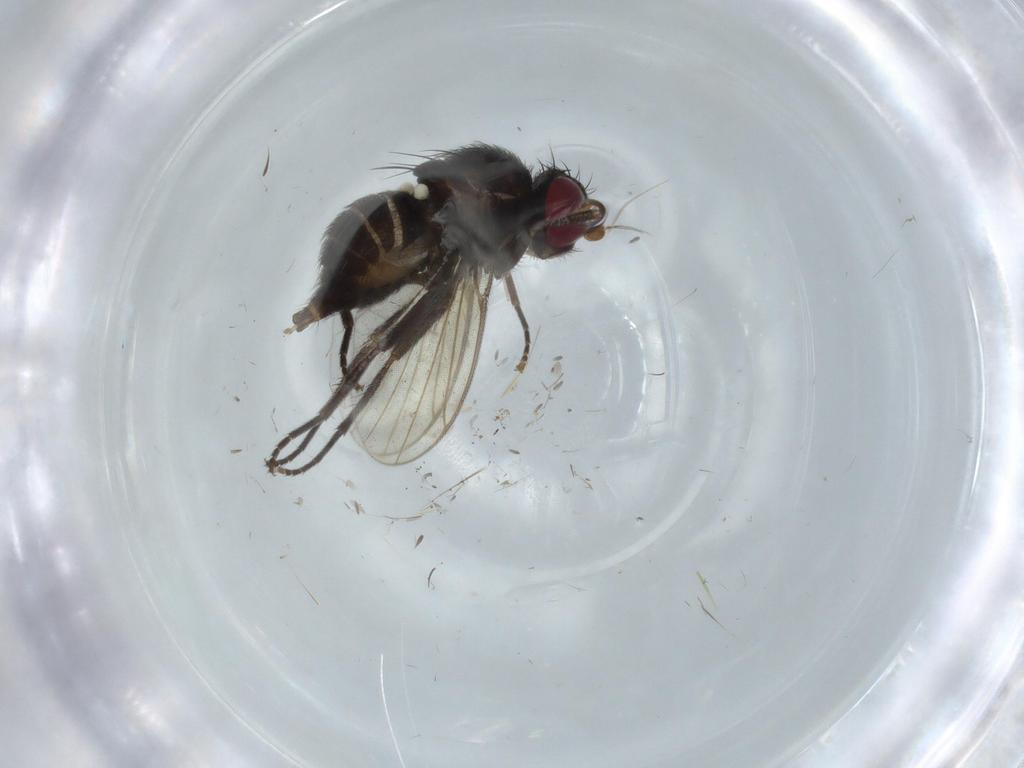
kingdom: Animalia
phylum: Arthropoda
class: Insecta
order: Diptera
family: Agromyzidae
